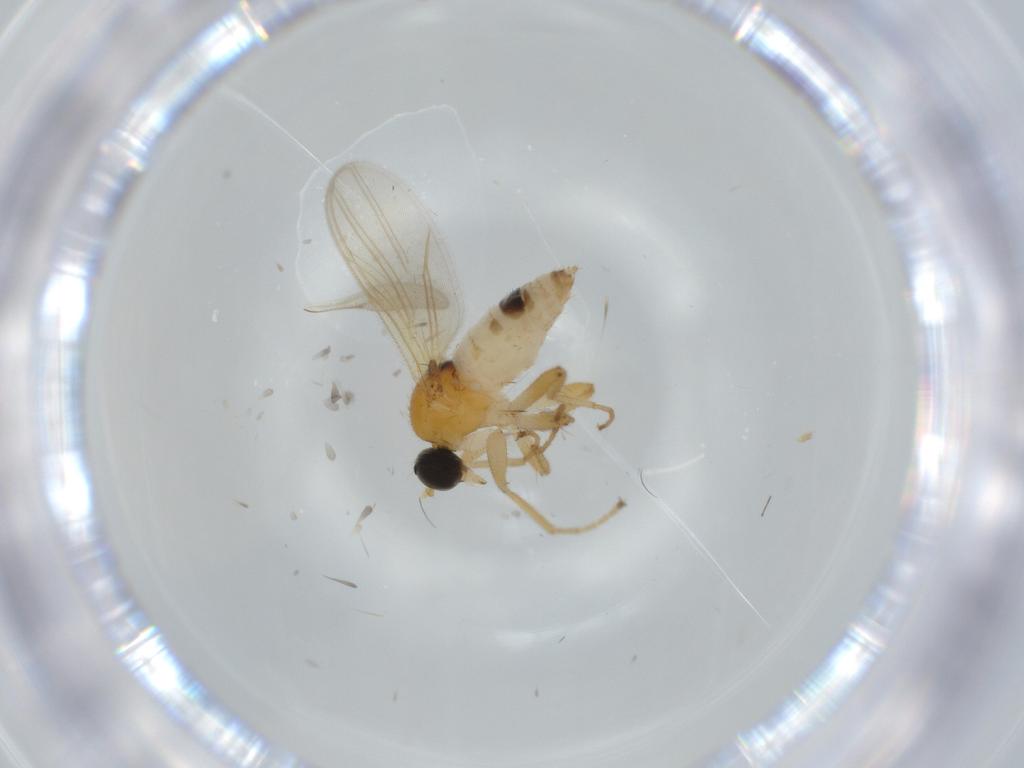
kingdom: Animalia
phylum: Arthropoda
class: Insecta
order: Diptera
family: Hybotidae
